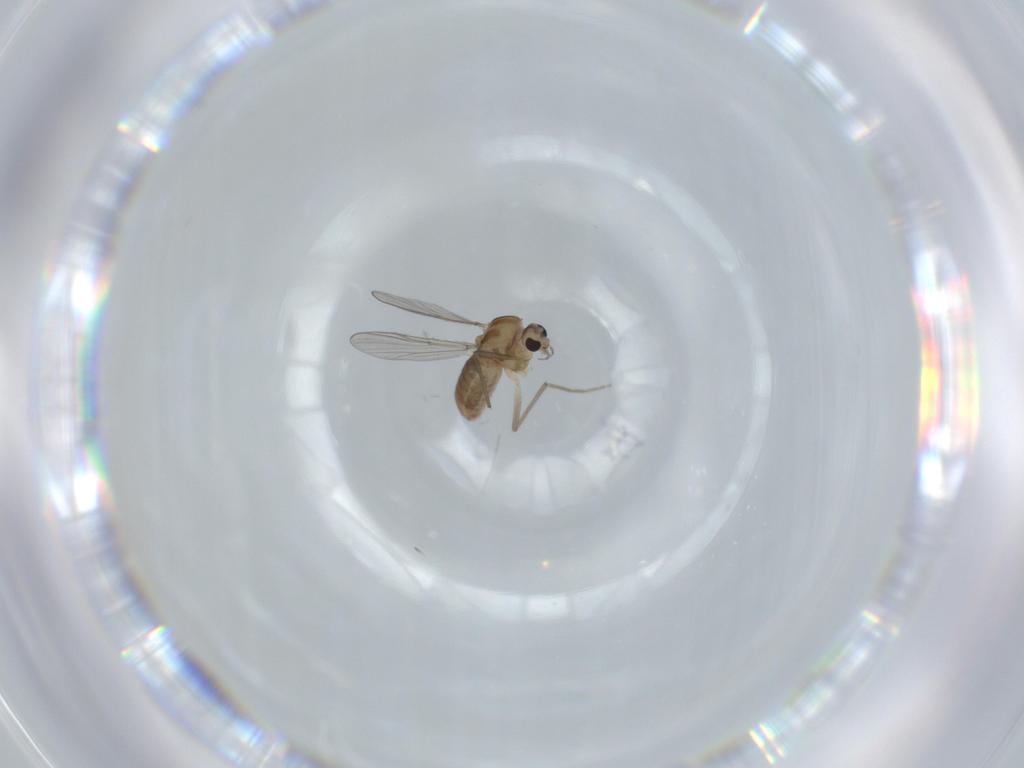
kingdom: Animalia
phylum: Arthropoda
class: Insecta
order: Diptera
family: Chironomidae
